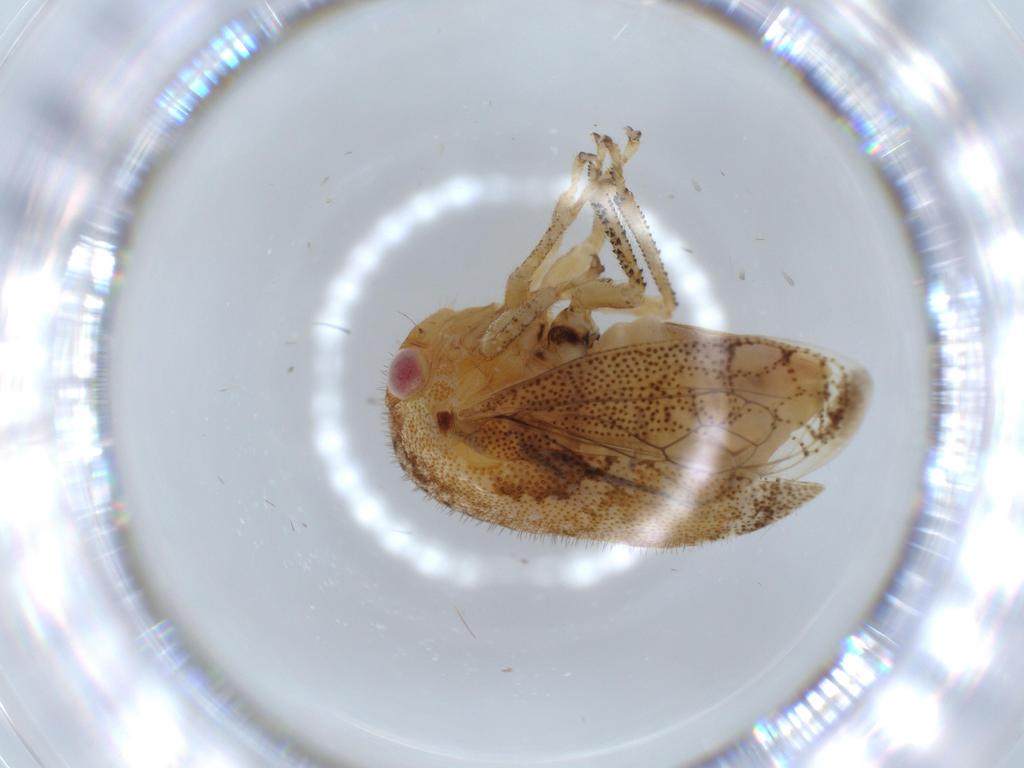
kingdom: Animalia
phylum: Arthropoda
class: Insecta
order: Hemiptera
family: Membracidae
